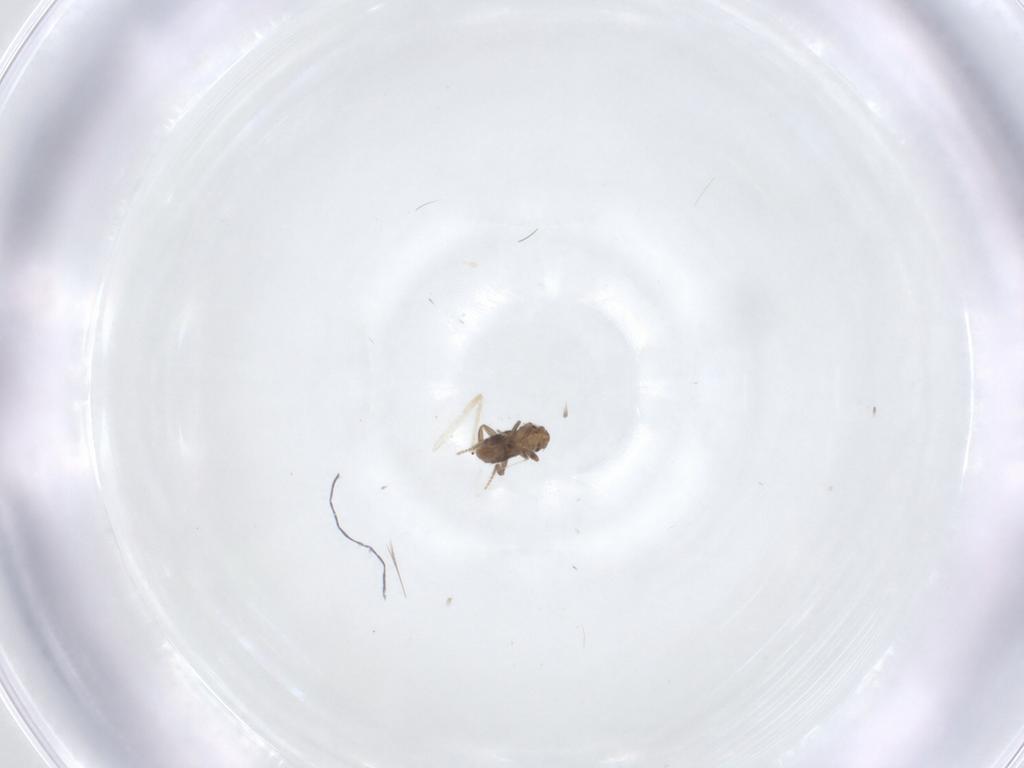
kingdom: Animalia
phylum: Arthropoda
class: Insecta
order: Diptera
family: Chironomidae
